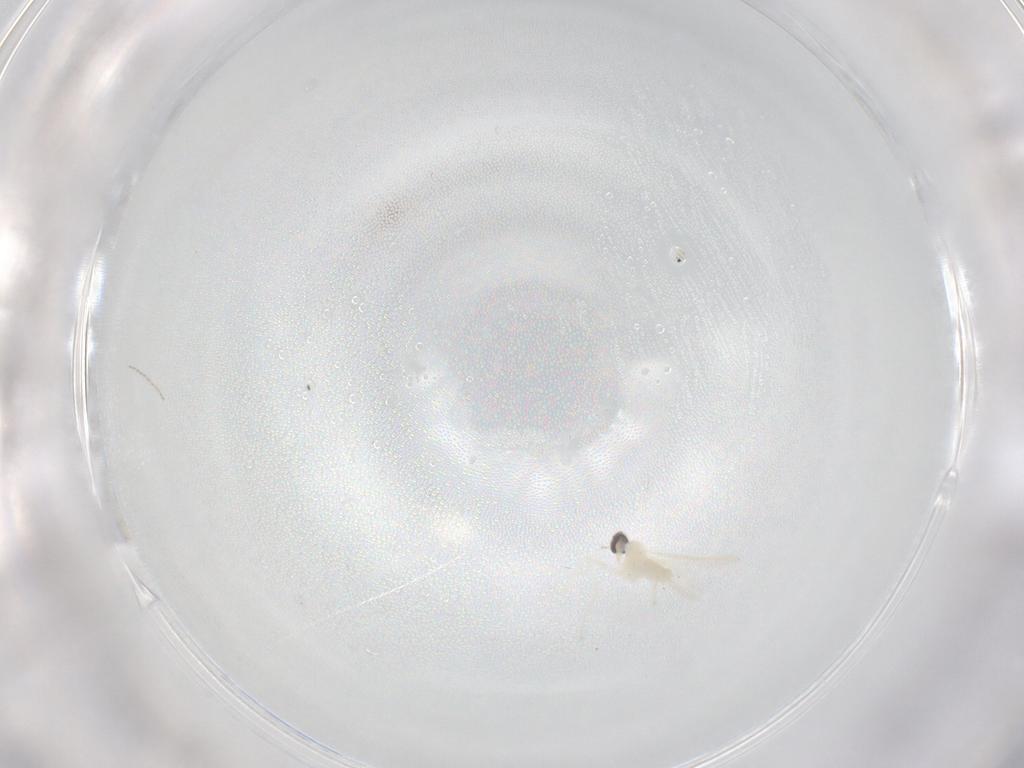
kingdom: Animalia
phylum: Arthropoda
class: Insecta
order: Diptera
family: Cecidomyiidae
